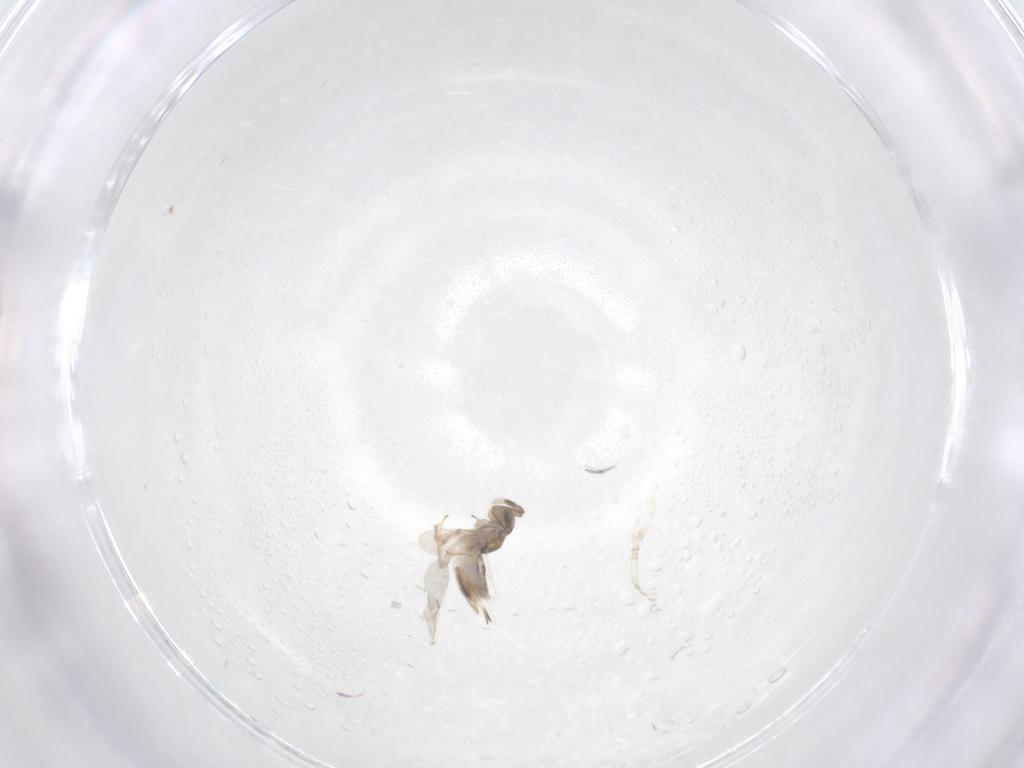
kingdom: Animalia
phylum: Arthropoda
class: Insecta
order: Hymenoptera
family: Encyrtidae
